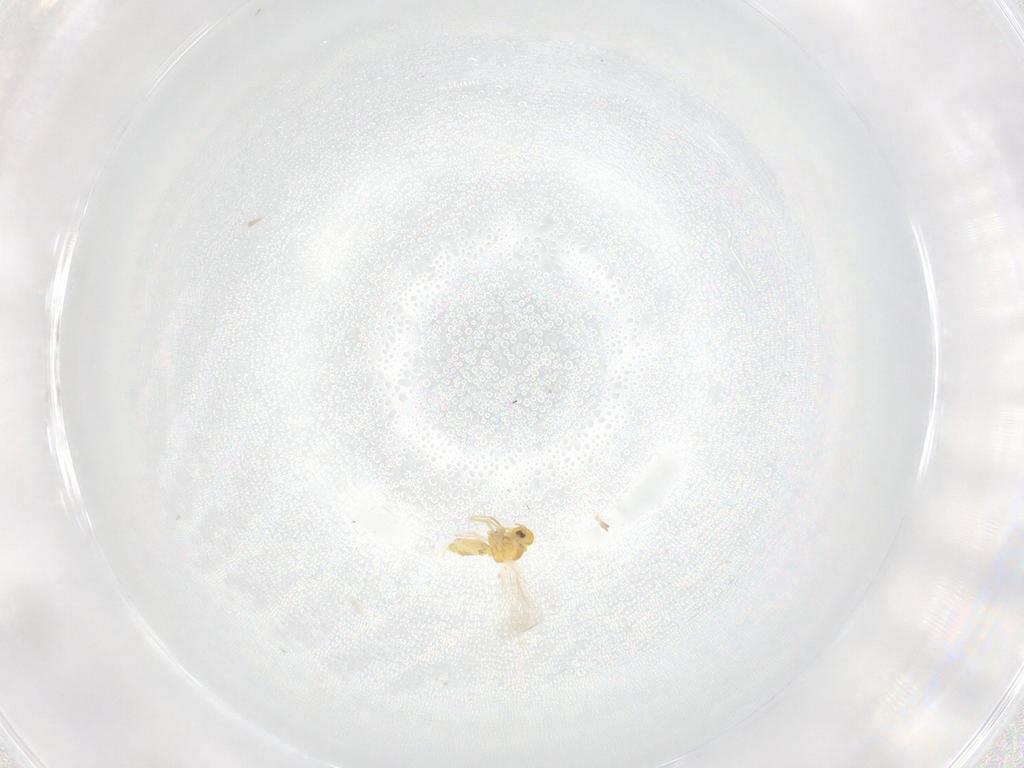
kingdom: Animalia
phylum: Arthropoda
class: Insecta
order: Hemiptera
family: Aleyrodidae
